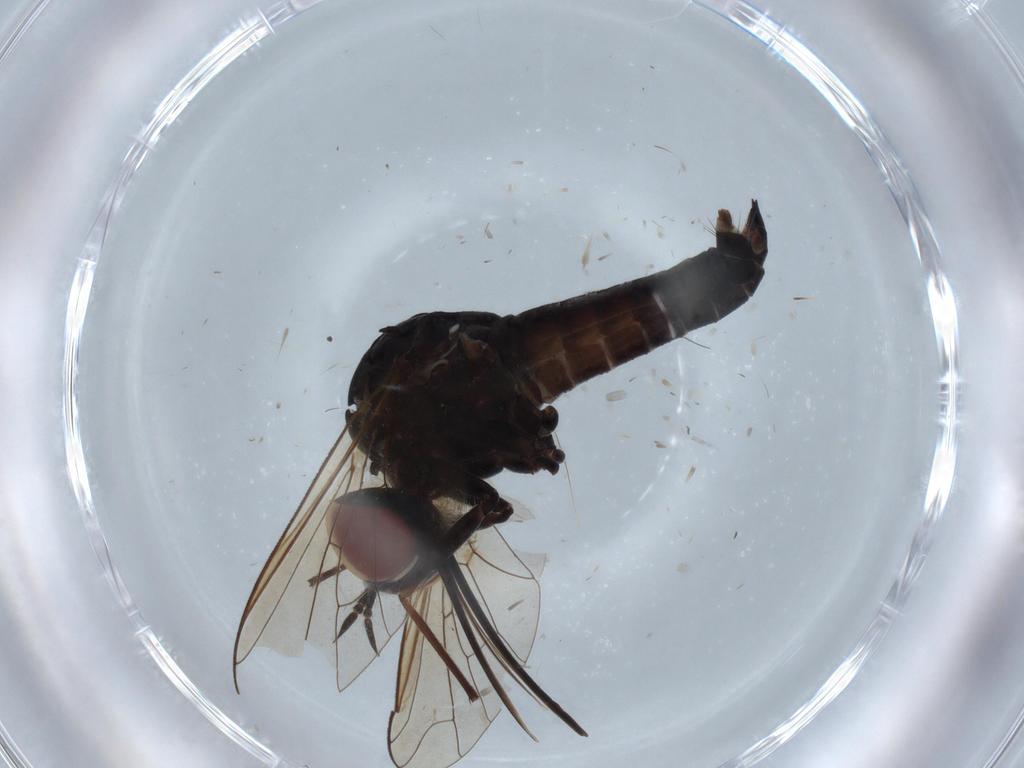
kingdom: Animalia
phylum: Arthropoda
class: Insecta
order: Diptera
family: Bombyliidae
